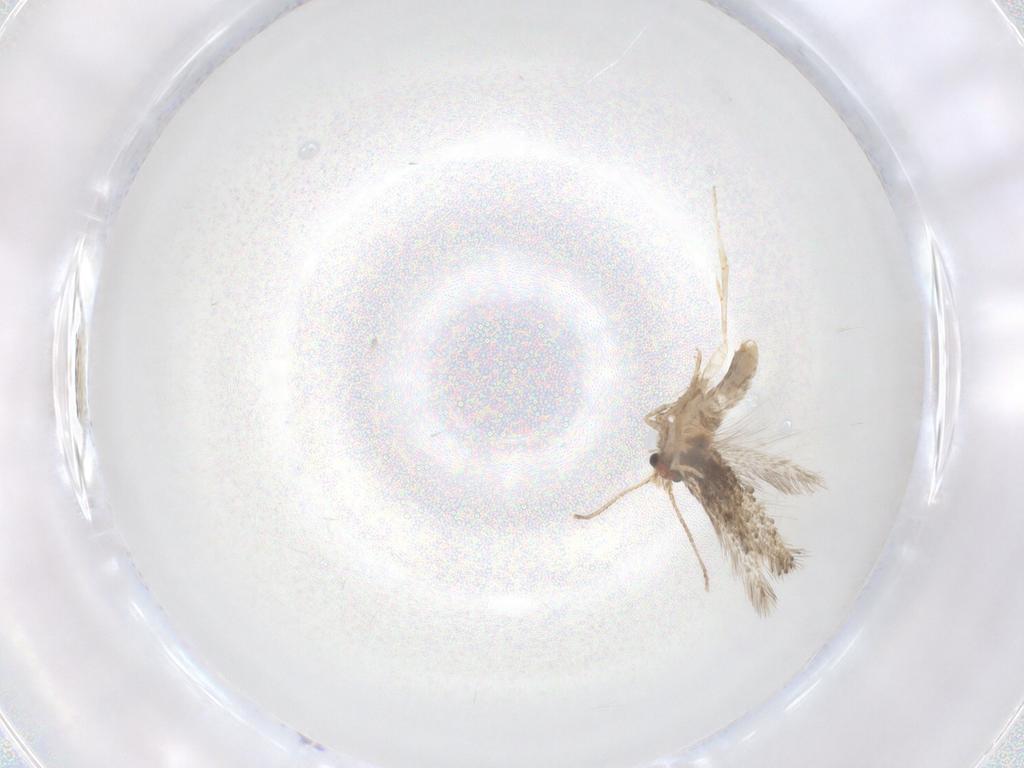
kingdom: Animalia
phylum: Arthropoda
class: Insecta
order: Lepidoptera
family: Nepticulidae
